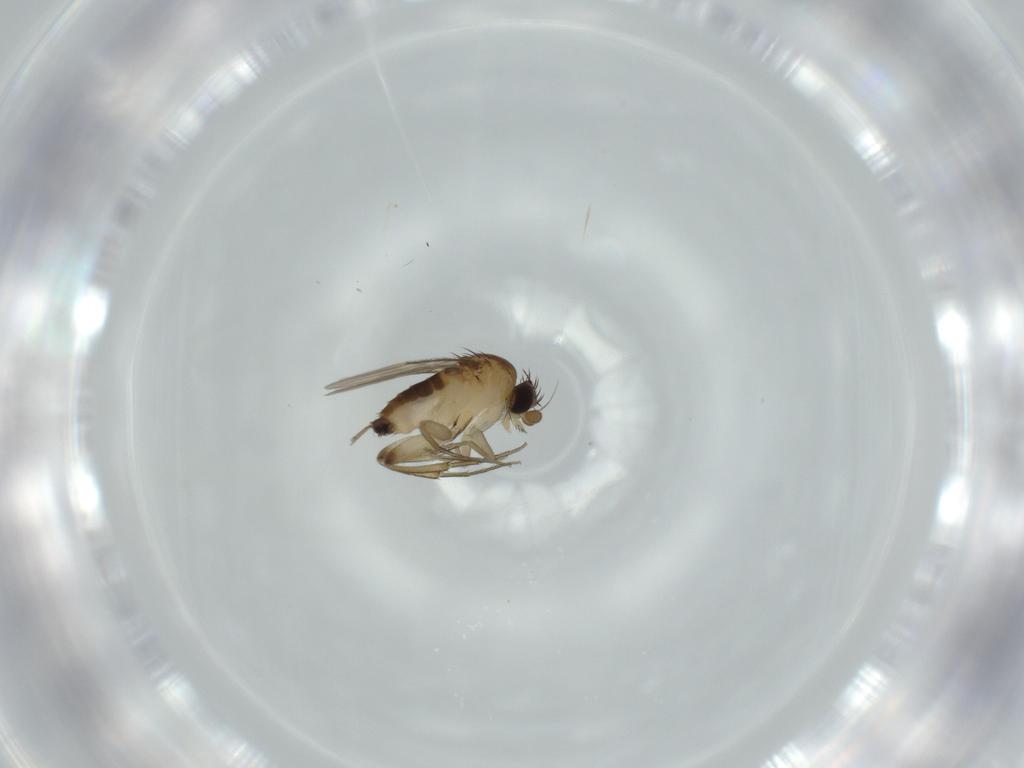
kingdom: Animalia
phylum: Arthropoda
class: Insecta
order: Diptera
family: Phoridae
